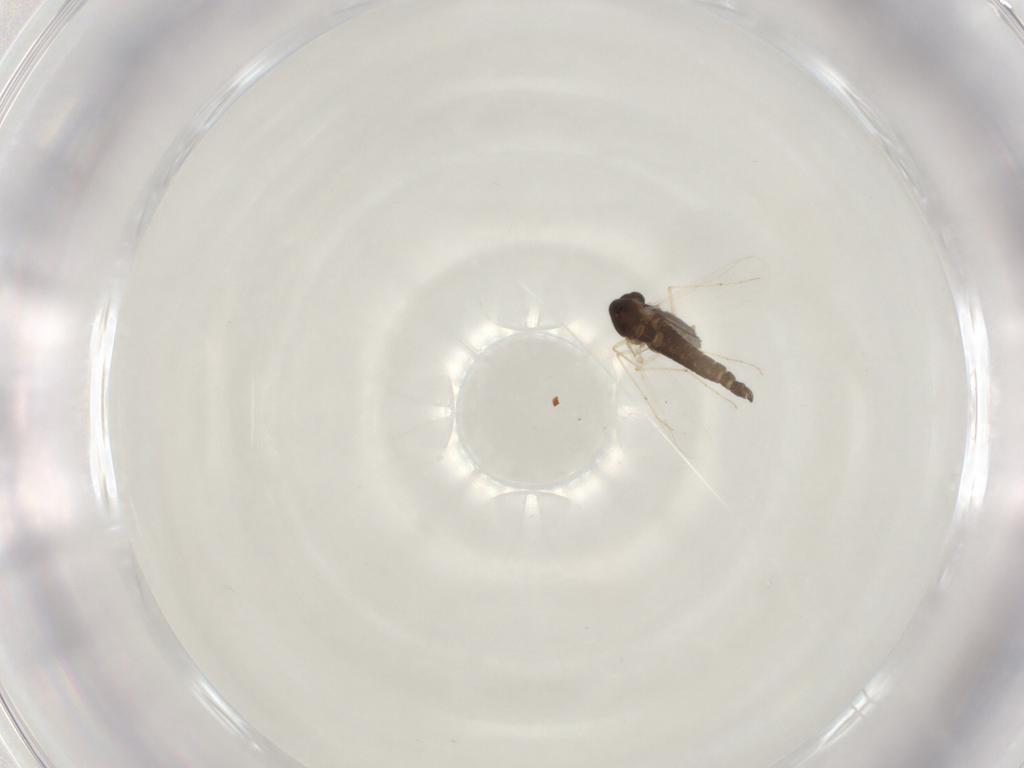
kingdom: Animalia
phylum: Arthropoda
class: Insecta
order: Diptera
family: Chironomidae
